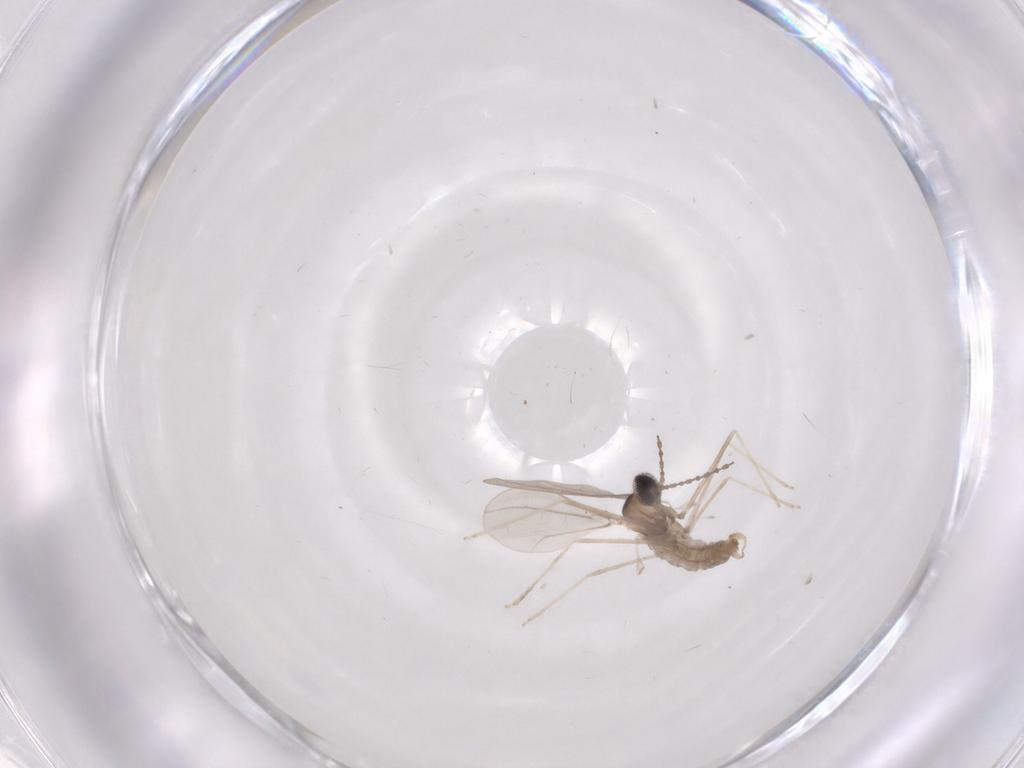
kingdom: Animalia
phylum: Arthropoda
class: Insecta
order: Diptera
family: Cecidomyiidae
